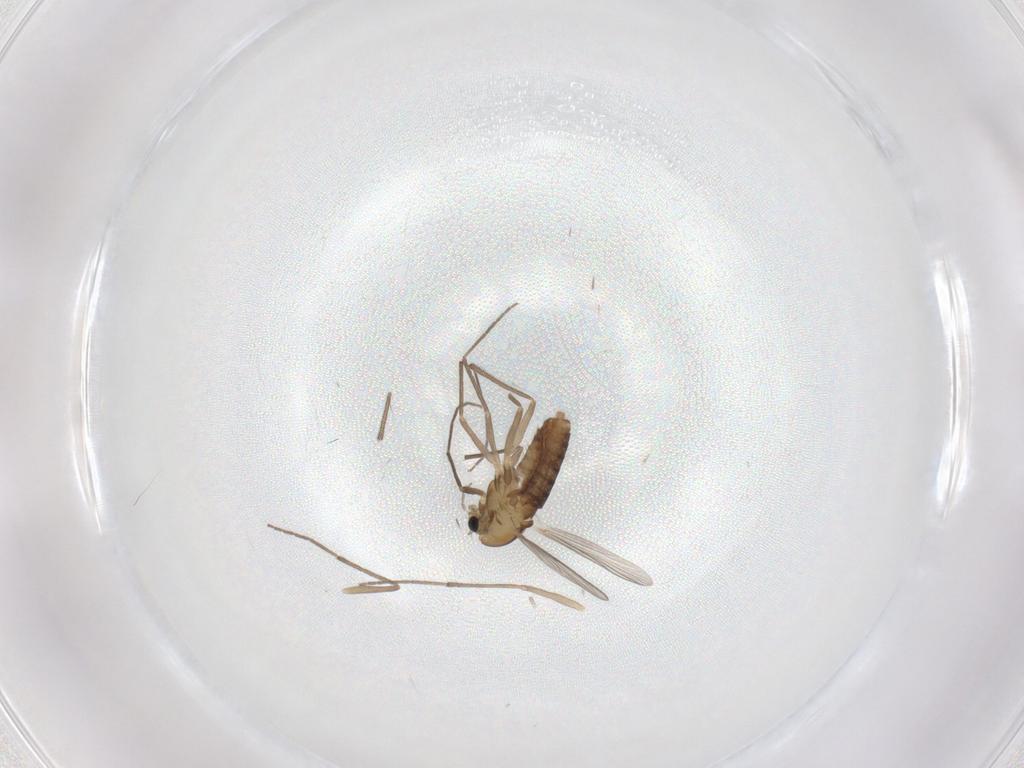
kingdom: Animalia
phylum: Arthropoda
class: Insecta
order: Diptera
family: Chironomidae
